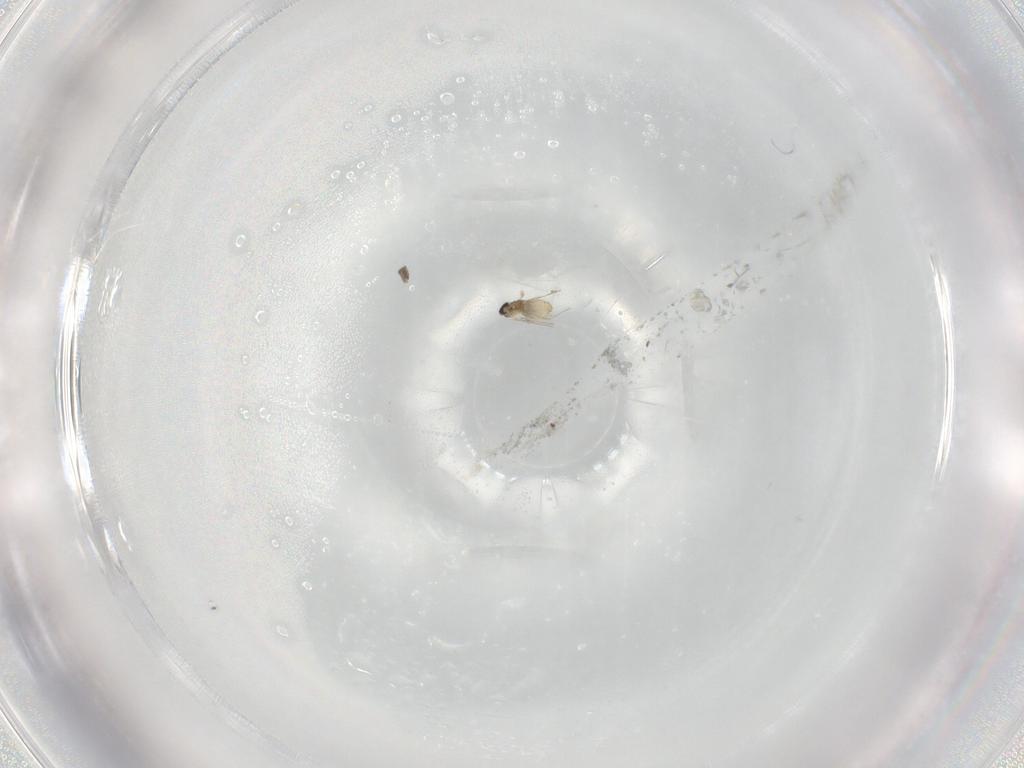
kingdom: Animalia
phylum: Arthropoda
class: Insecta
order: Diptera
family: Cecidomyiidae
